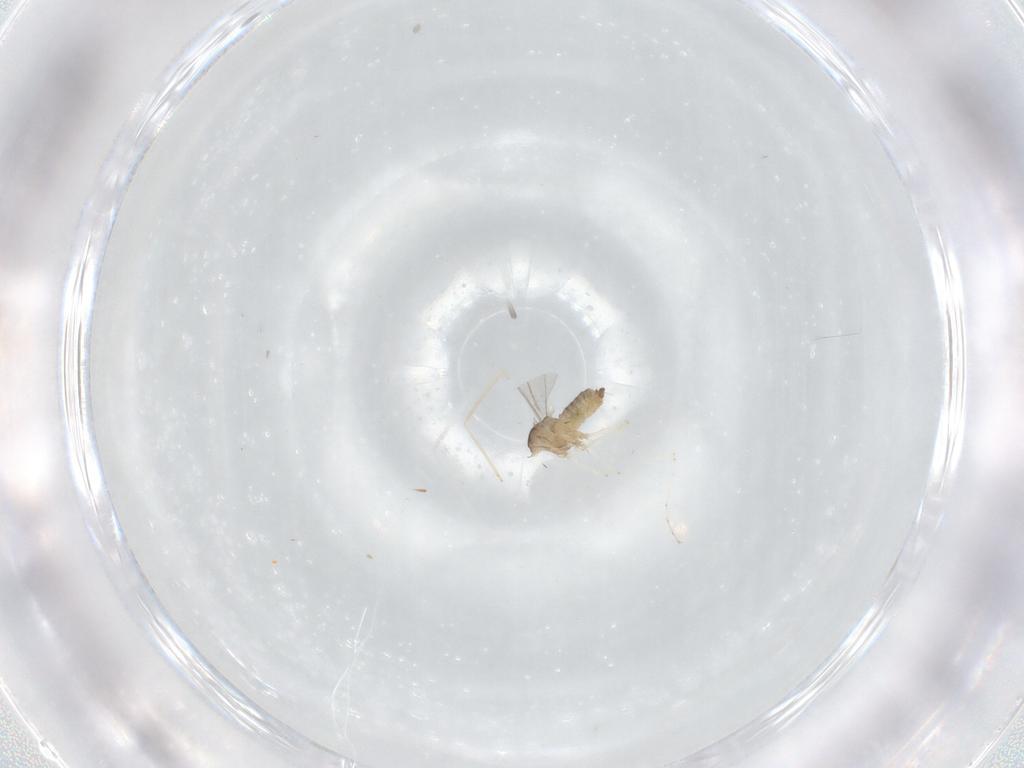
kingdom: Animalia
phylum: Arthropoda
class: Insecta
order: Diptera
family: Cecidomyiidae
